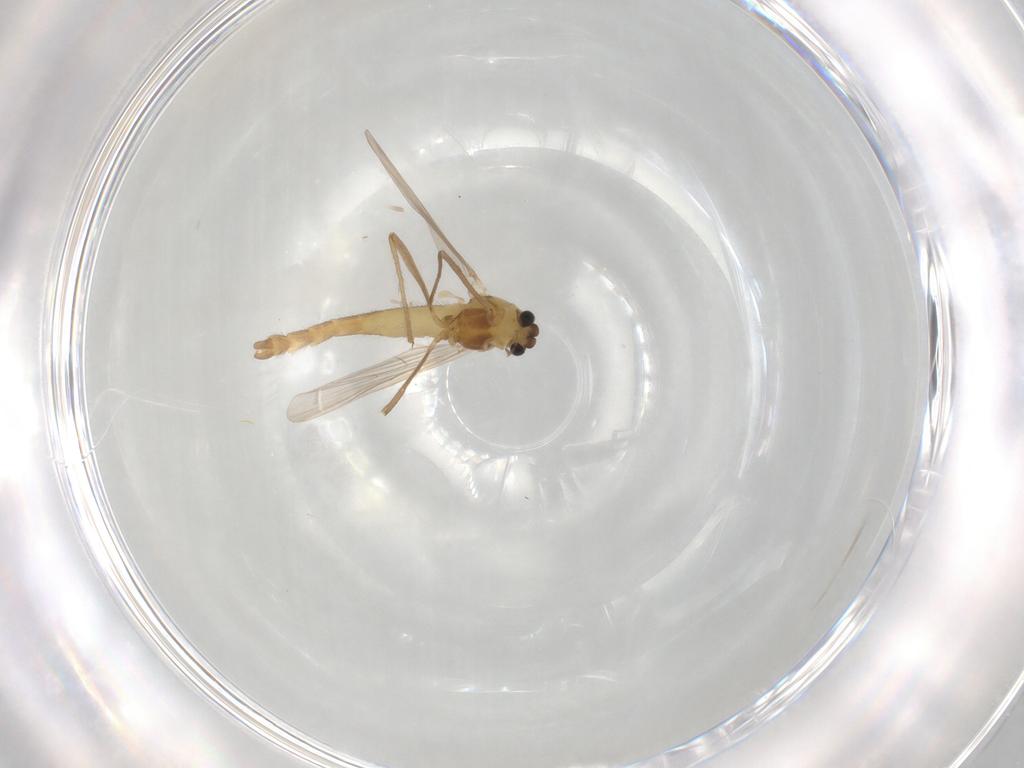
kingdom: Animalia
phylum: Arthropoda
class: Insecta
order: Diptera
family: Chironomidae
